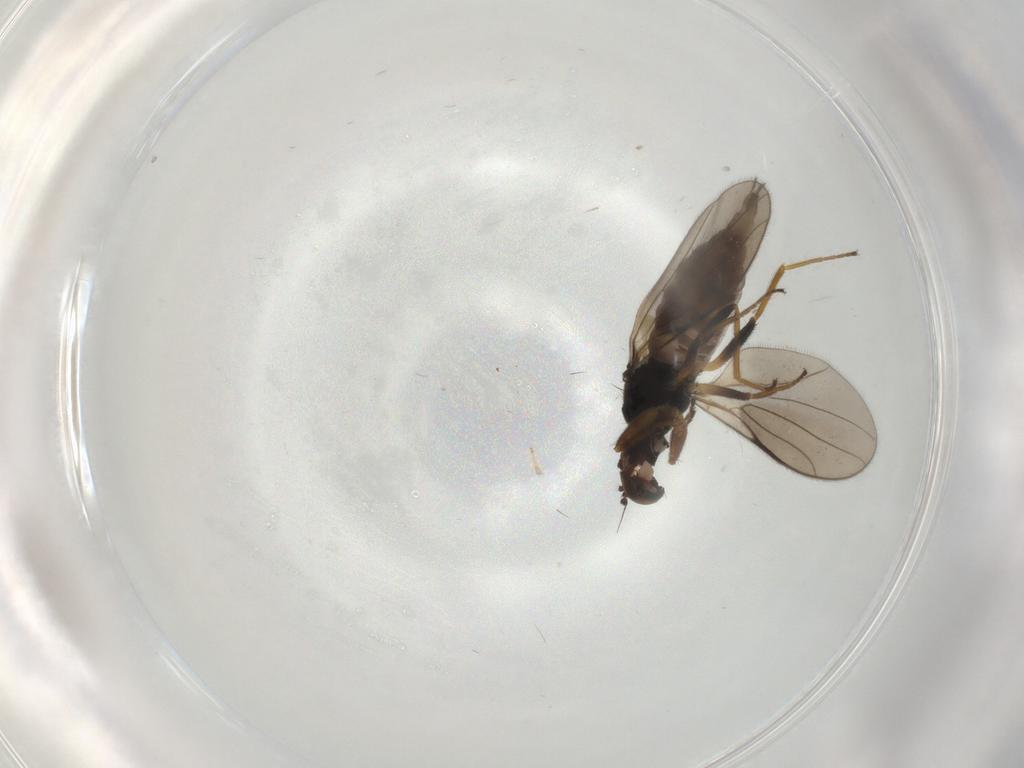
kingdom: Animalia
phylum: Arthropoda
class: Insecta
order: Diptera
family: Hybotidae
